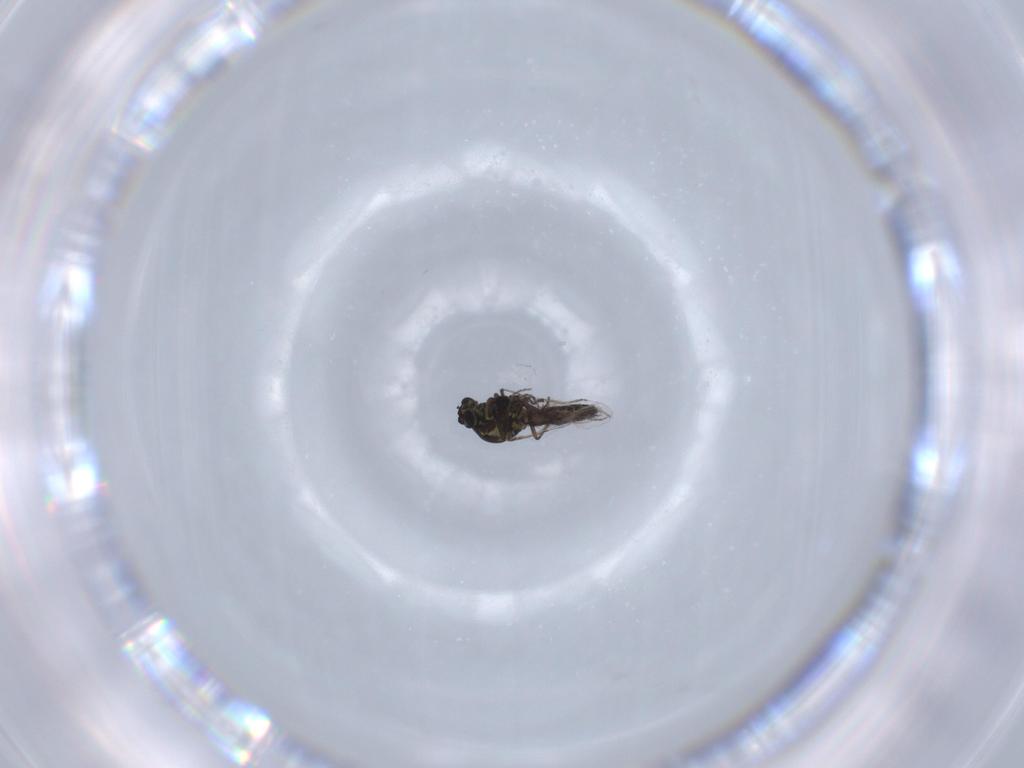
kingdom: Animalia
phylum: Arthropoda
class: Insecta
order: Diptera
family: Ceratopogonidae
